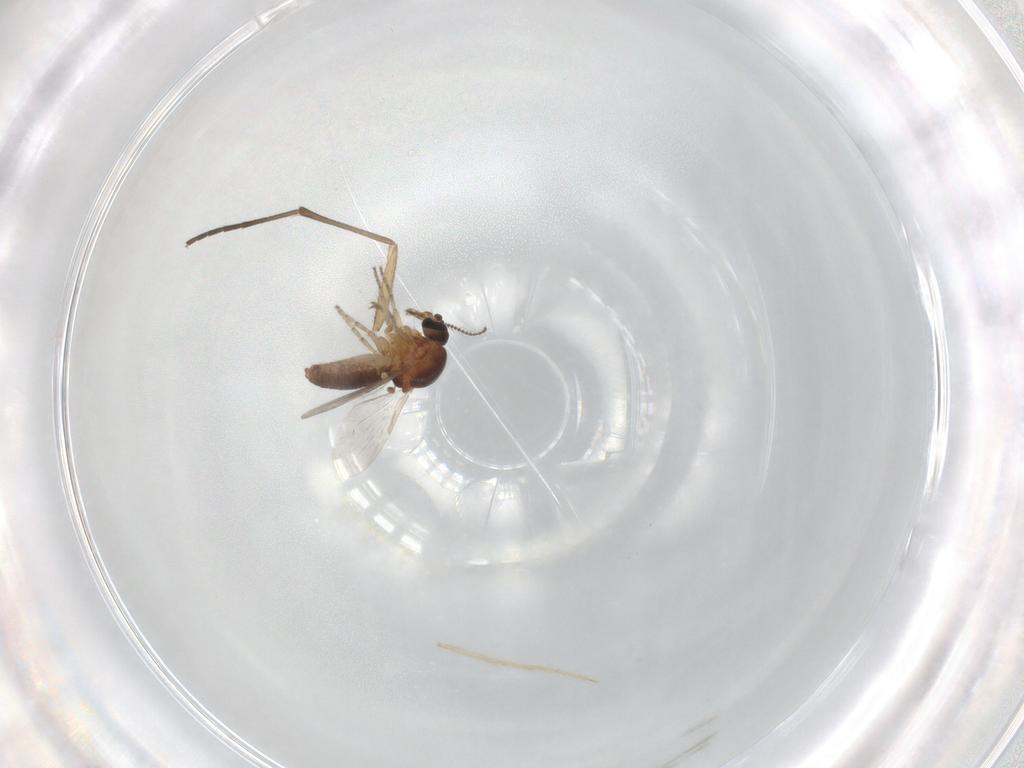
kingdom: Animalia
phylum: Arthropoda
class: Insecta
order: Diptera
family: Ceratopogonidae
